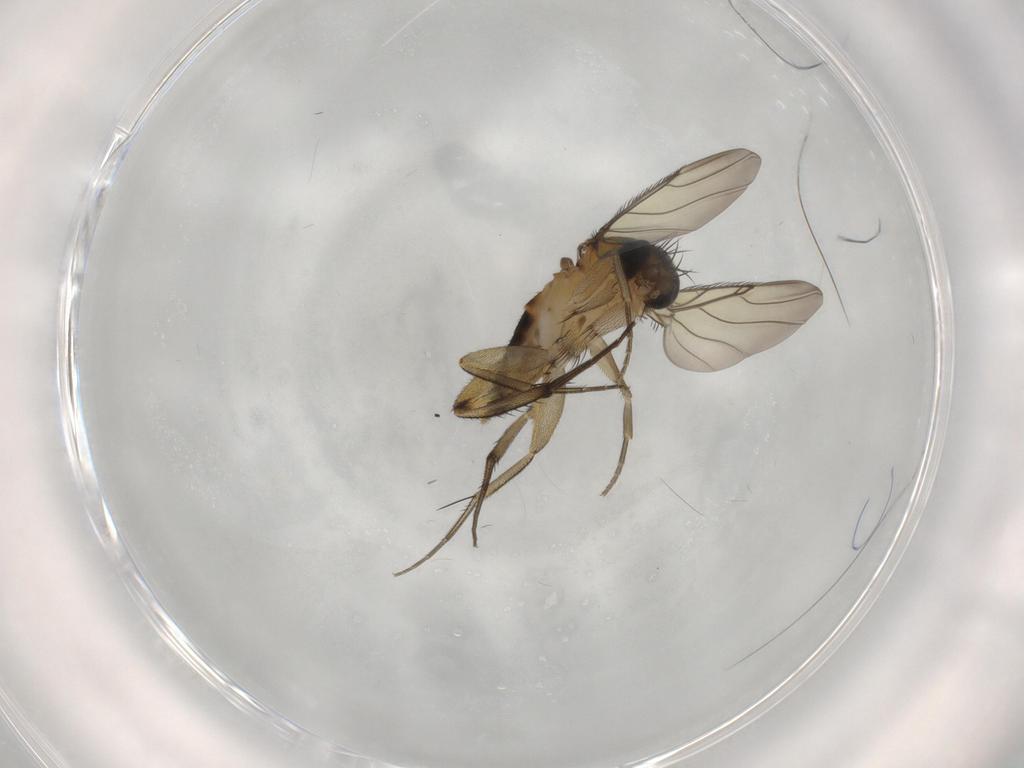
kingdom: Animalia
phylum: Arthropoda
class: Insecta
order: Diptera
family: Phoridae
